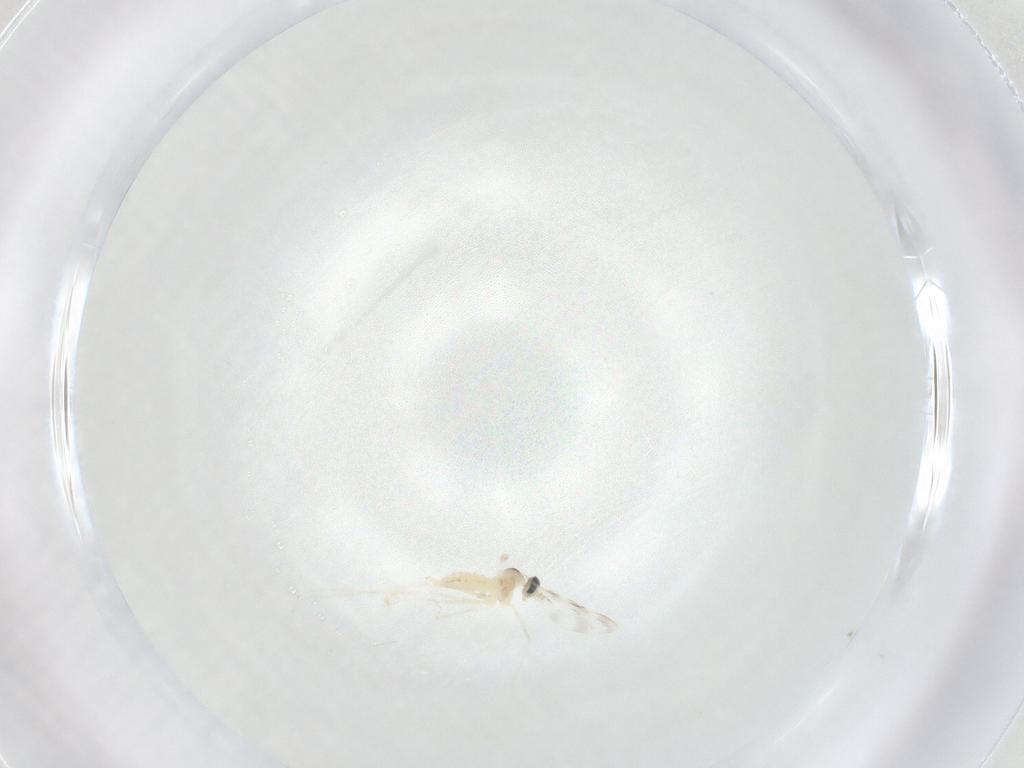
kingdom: Animalia
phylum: Arthropoda
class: Insecta
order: Diptera
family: Cecidomyiidae
